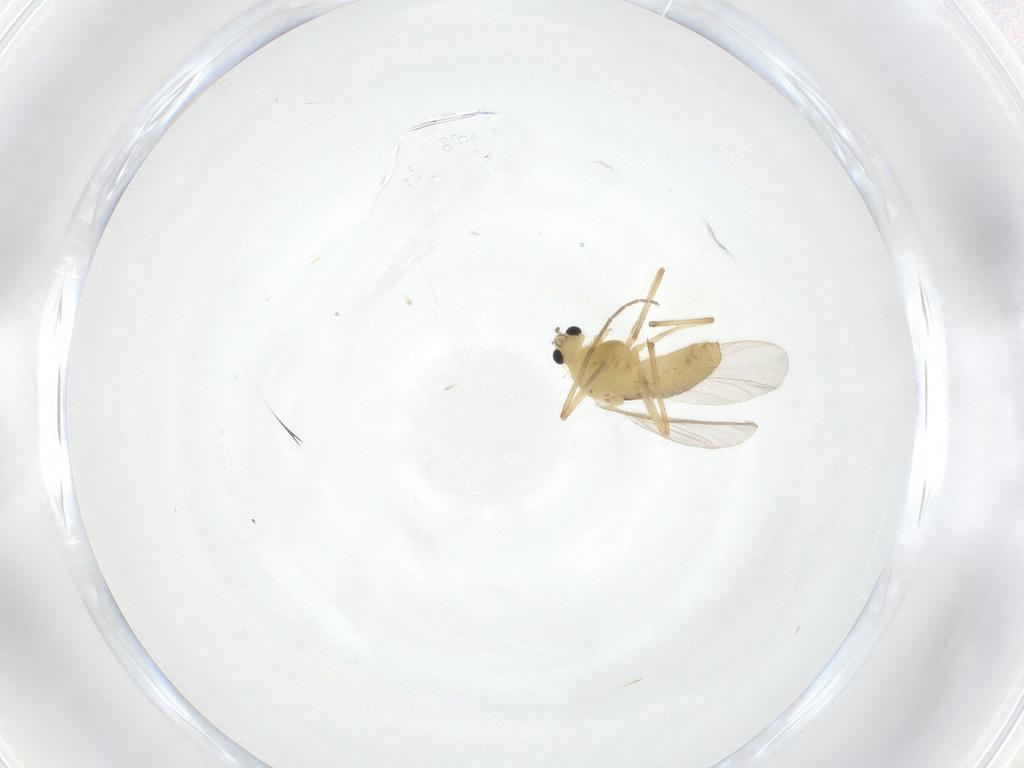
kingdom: Animalia
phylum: Arthropoda
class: Insecta
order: Diptera
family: Chironomidae
